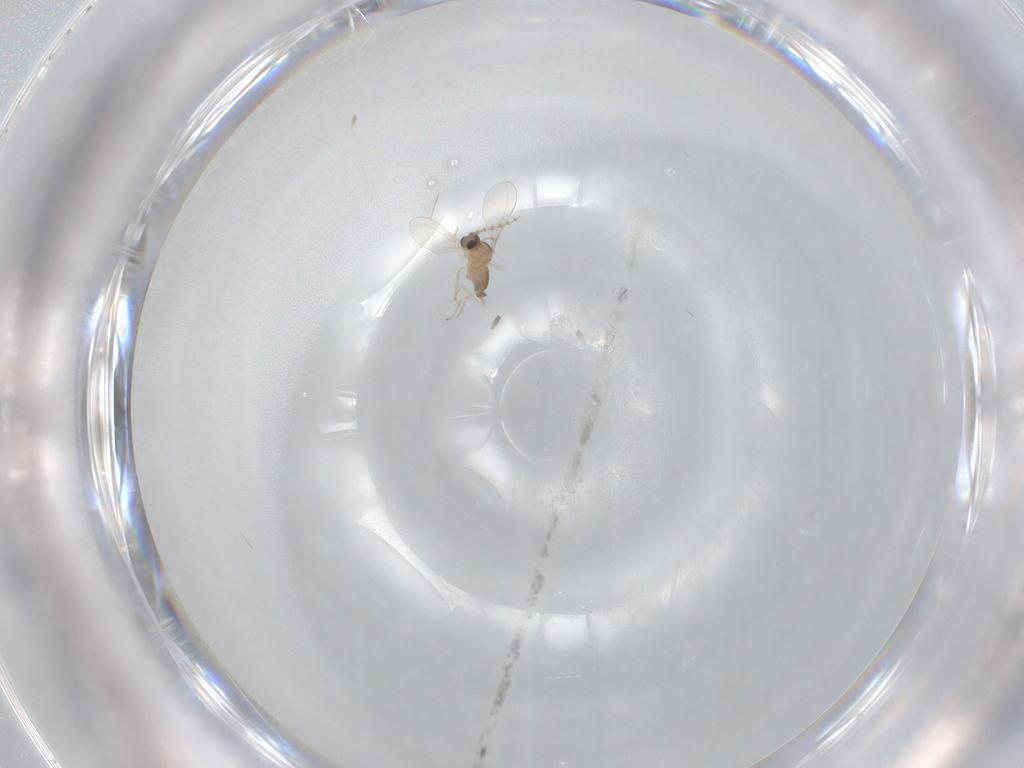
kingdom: Animalia
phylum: Arthropoda
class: Insecta
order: Diptera
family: Cecidomyiidae
